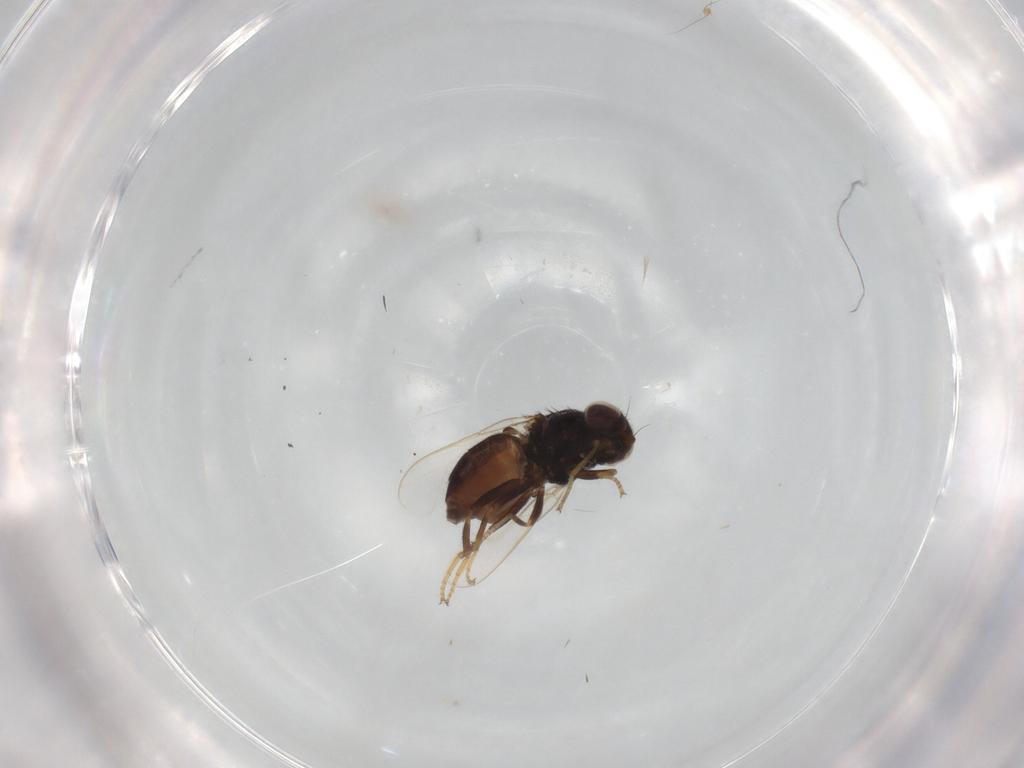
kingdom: Animalia
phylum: Arthropoda
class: Insecta
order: Diptera
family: Chloropidae
